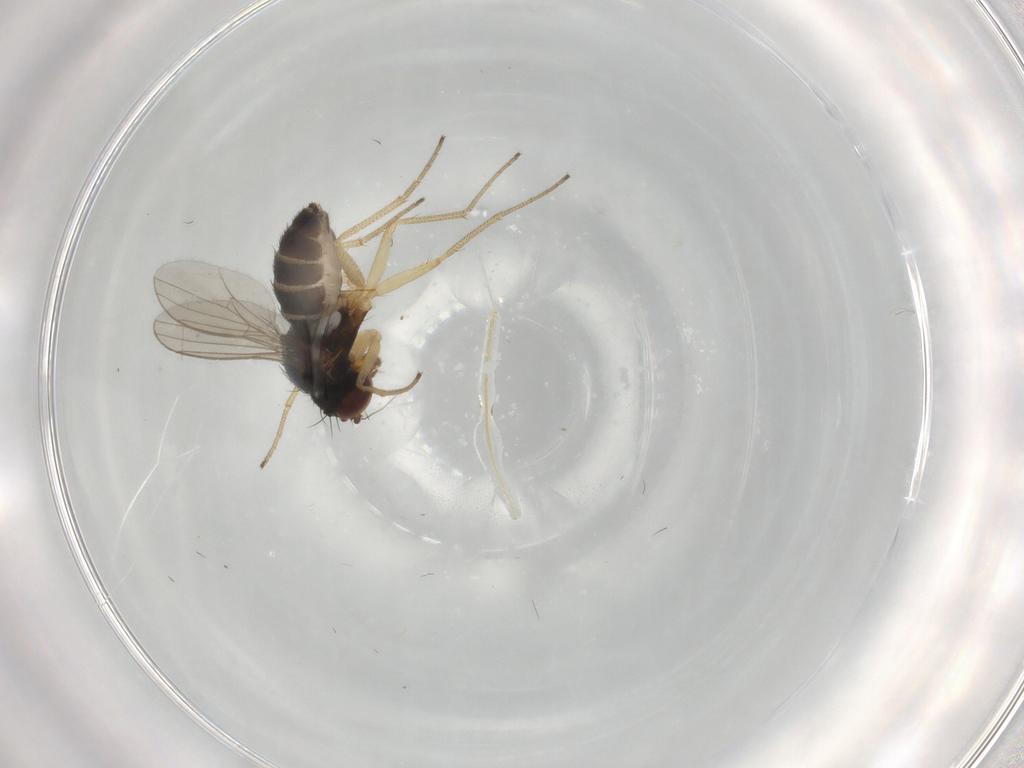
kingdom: Animalia
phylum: Arthropoda
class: Insecta
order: Diptera
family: Dolichopodidae
